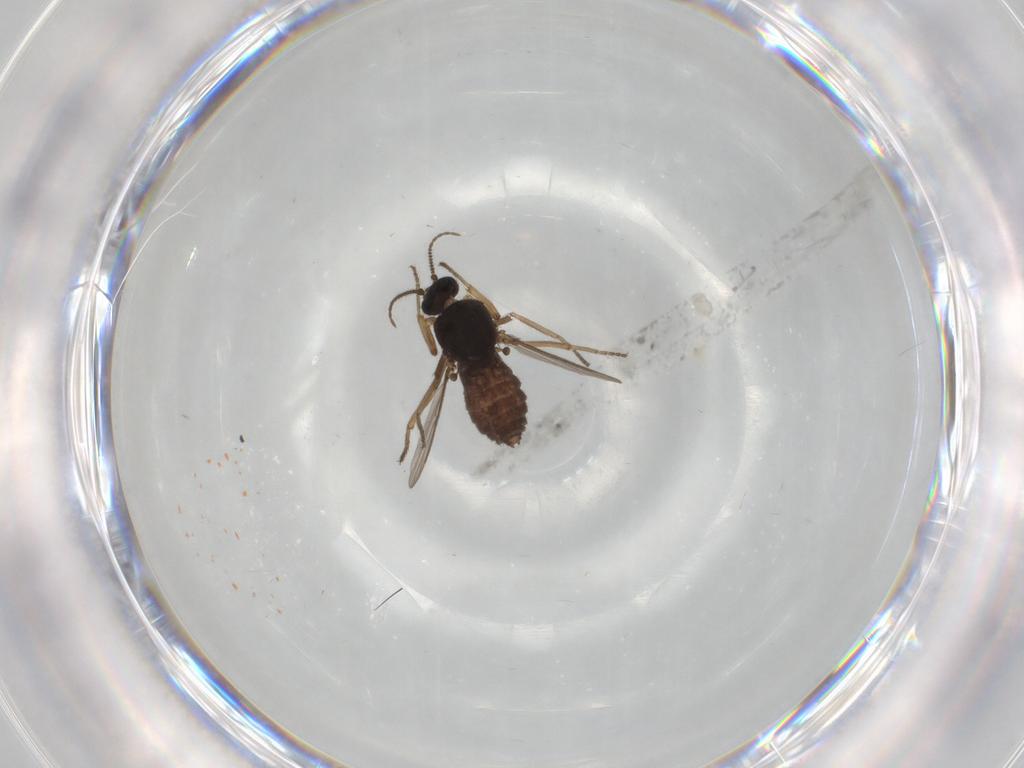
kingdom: Animalia
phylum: Arthropoda
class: Insecta
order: Diptera
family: Ceratopogonidae
